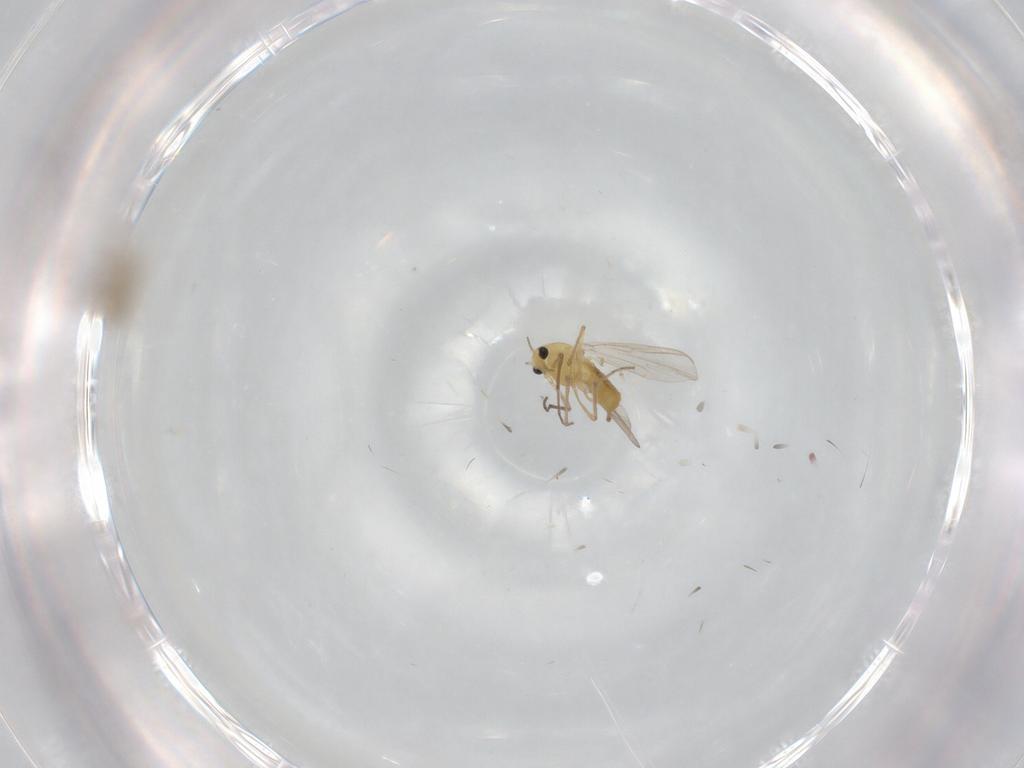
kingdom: Animalia
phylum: Arthropoda
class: Insecta
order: Diptera
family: Cecidomyiidae
